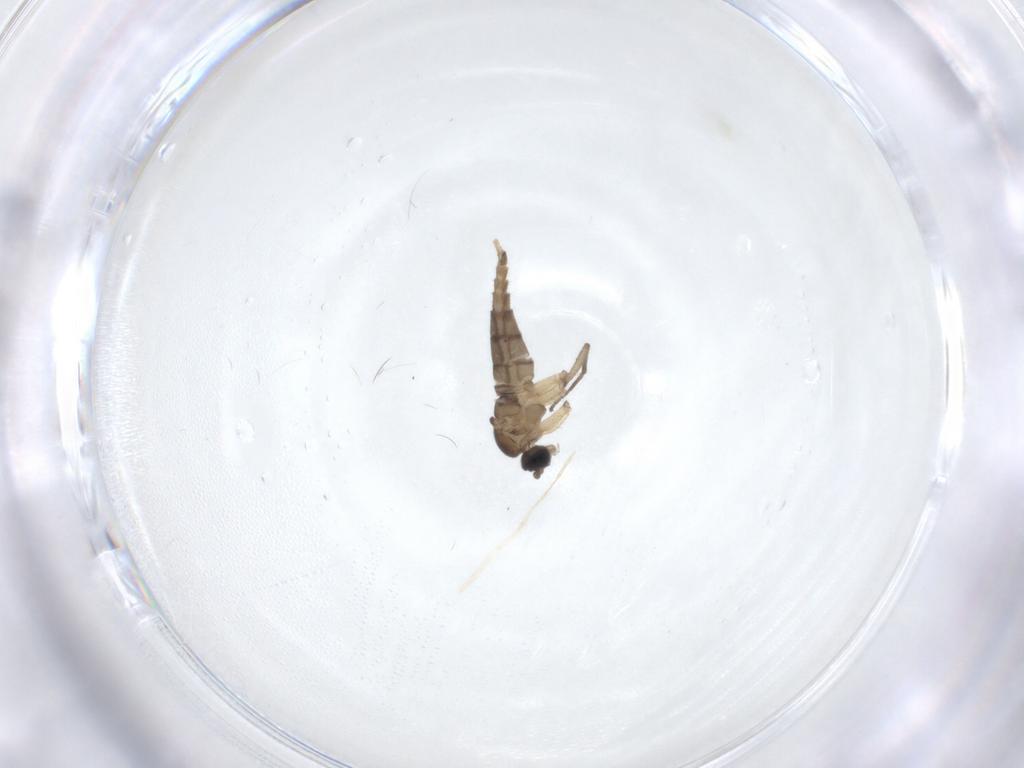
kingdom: Animalia
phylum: Arthropoda
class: Insecta
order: Diptera
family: Sciaridae
